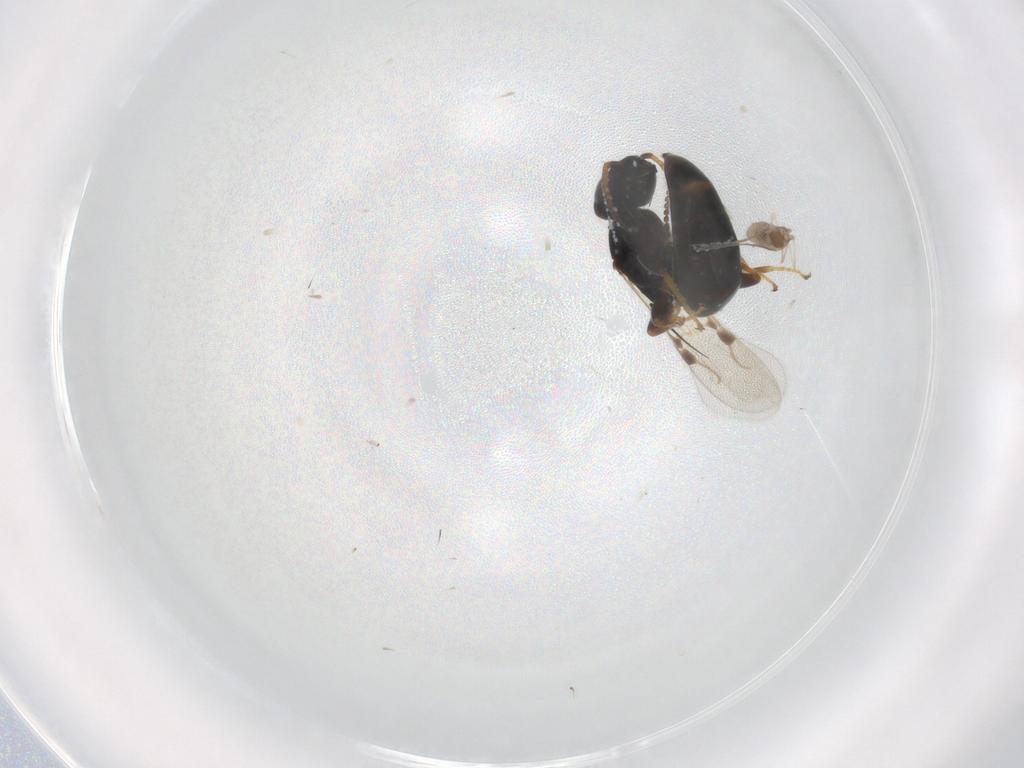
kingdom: Animalia
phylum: Arthropoda
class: Insecta
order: Hymenoptera
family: Bethylidae
